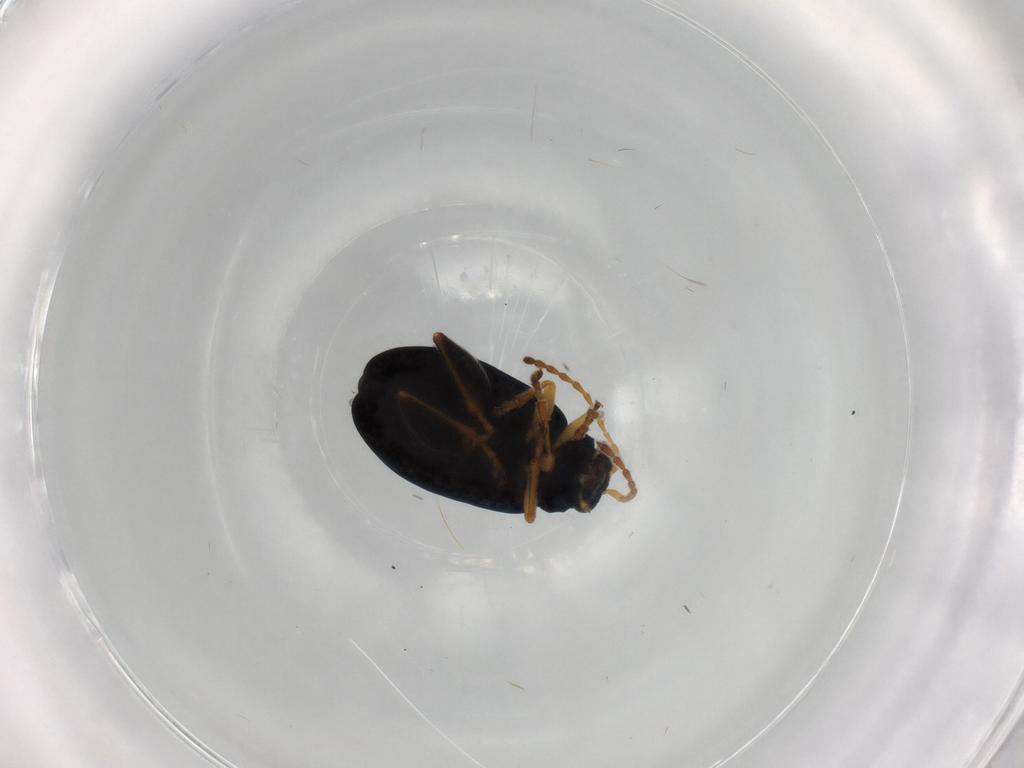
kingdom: Animalia
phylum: Arthropoda
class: Insecta
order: Coleoptera
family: Chrysomelidae
